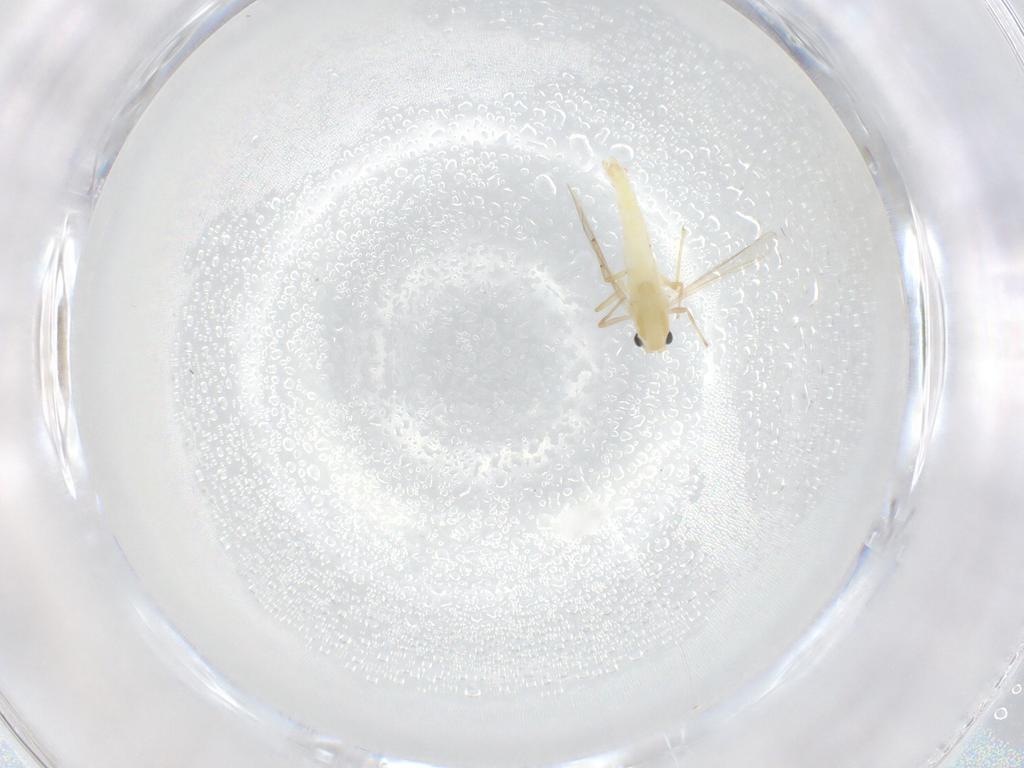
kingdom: Animalia
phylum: Arthropoda
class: Insecta
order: Diptera
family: Chironomidae
